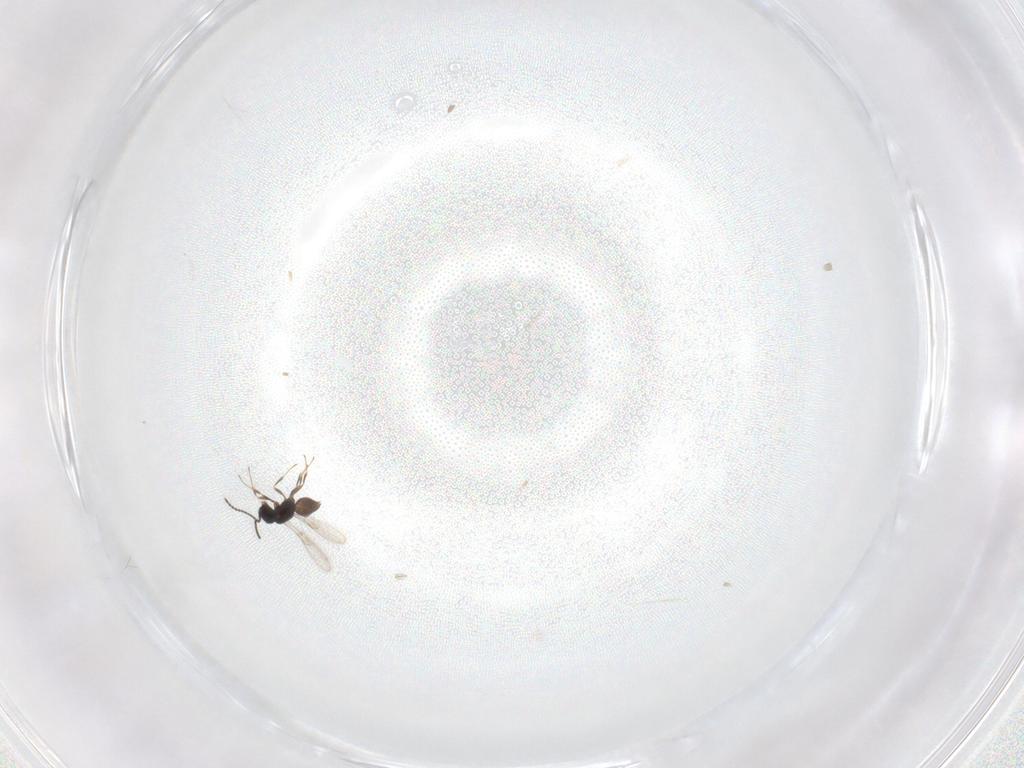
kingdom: Animalia
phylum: Arthropoda
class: Insecta
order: Hymenoptera
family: Scelionidae
